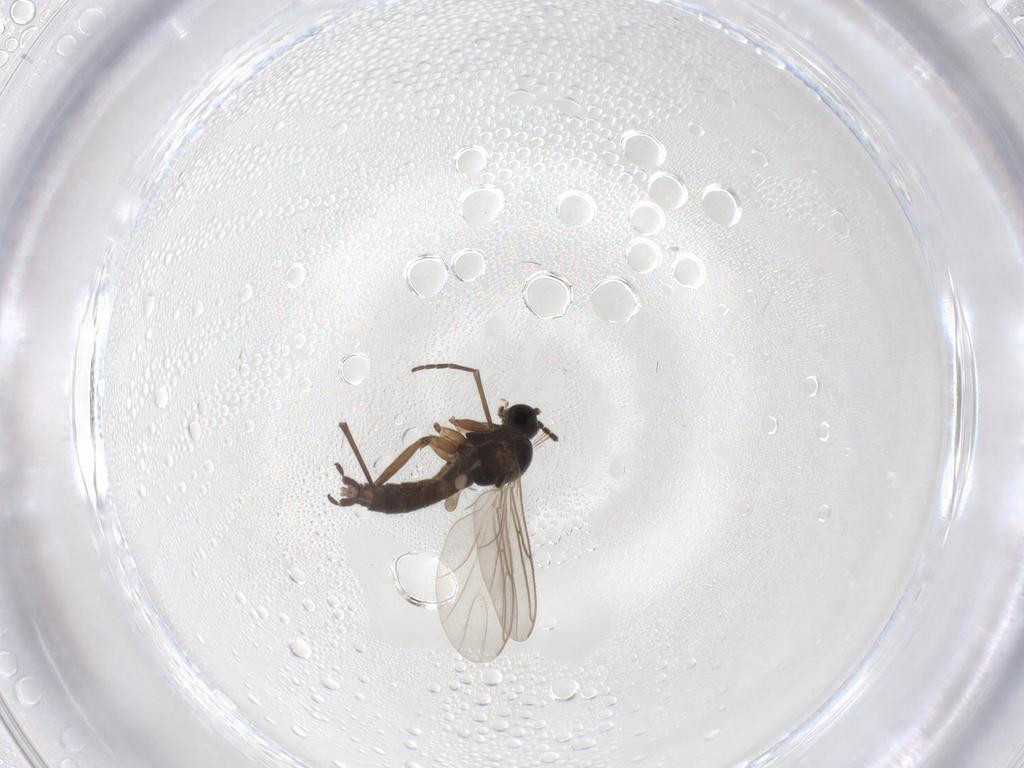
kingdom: Animalia
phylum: Arthropoda
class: Insecta
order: Diptera
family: Sciaridae
